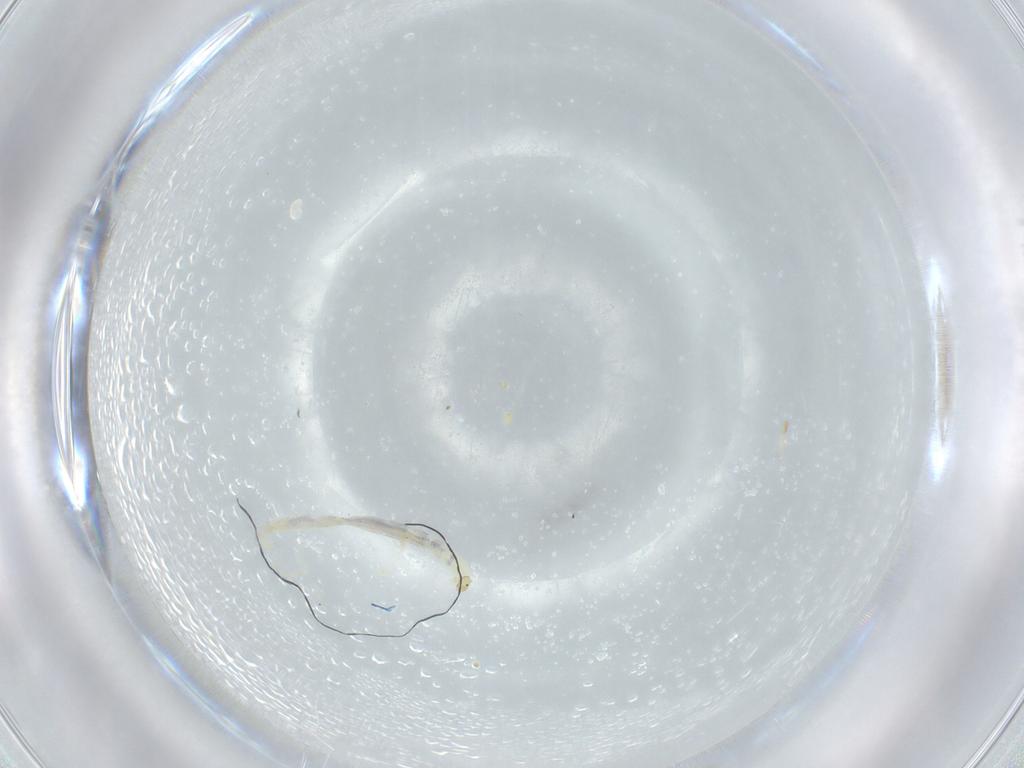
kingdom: Animalia
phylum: Arthropoda
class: Insecta
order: Diptera
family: Chironomidae
